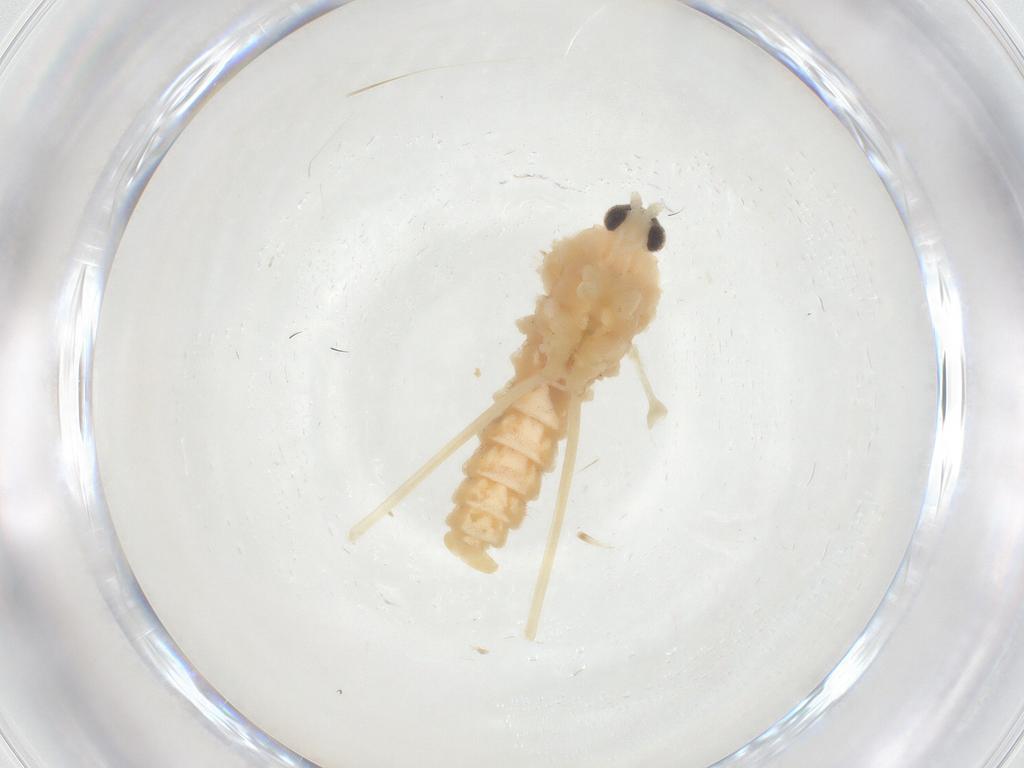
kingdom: Animalia
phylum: Arthropoda
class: Insecta
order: Diptera
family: Cecidomyiidae
